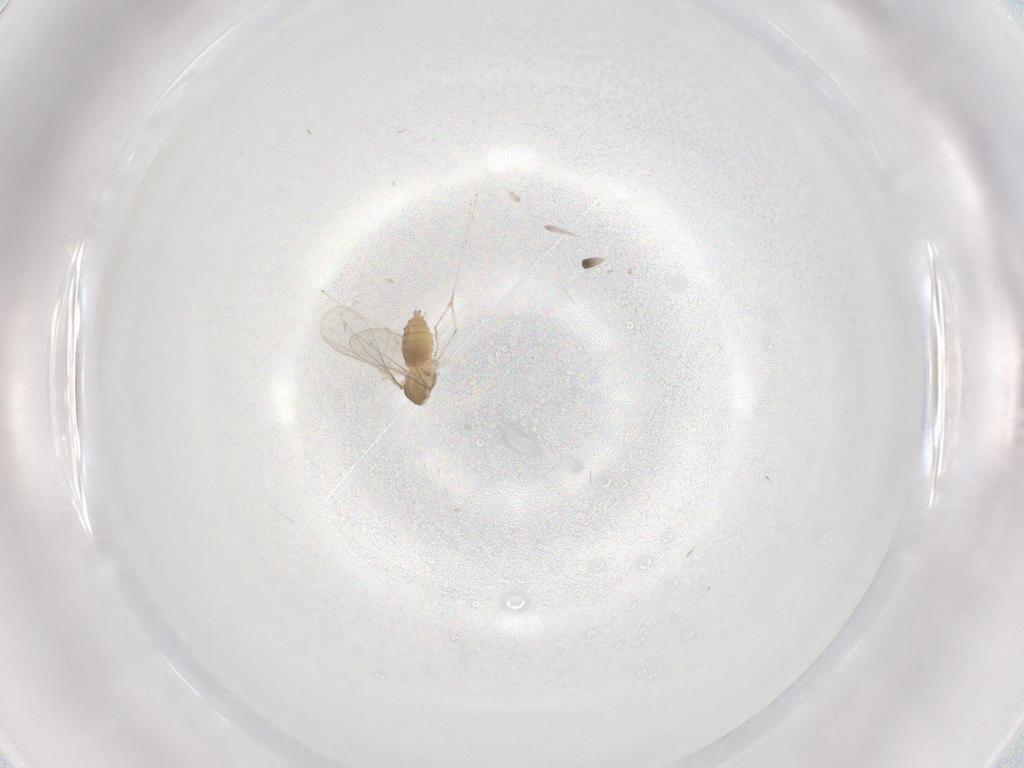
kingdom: Animalia
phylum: Arthropoda
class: Insecta
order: Diptera
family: Cecidomyiidae
